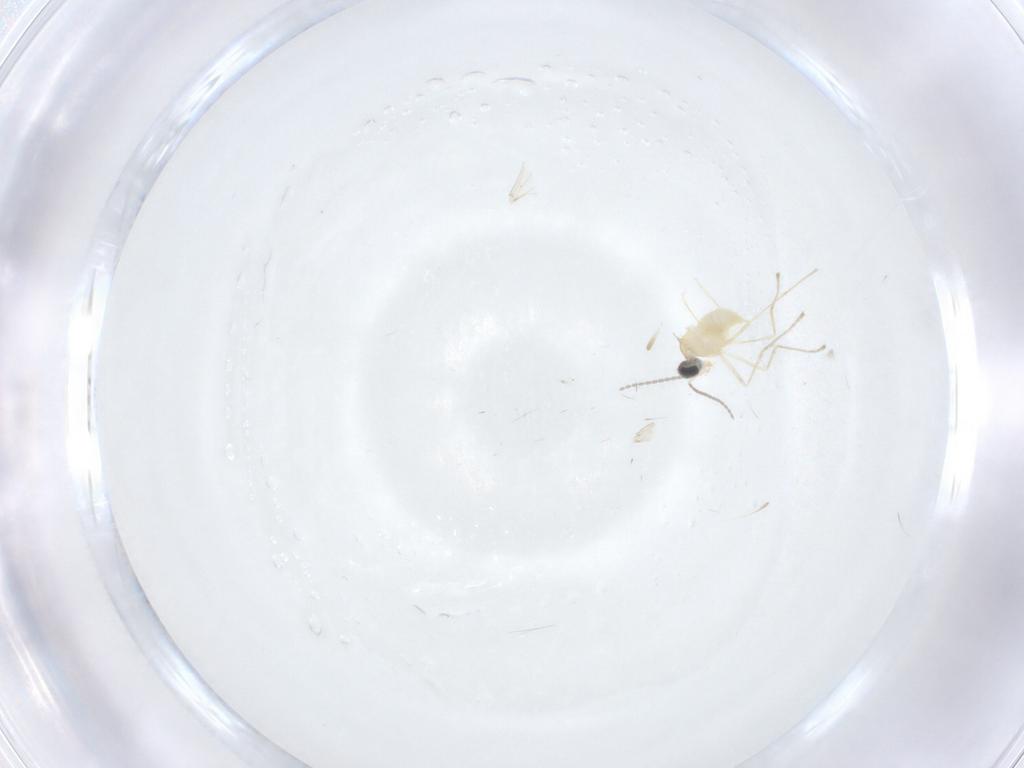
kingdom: Animalia
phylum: Arthropoda
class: Insecta
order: Diptera
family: Cecidomyiidae
